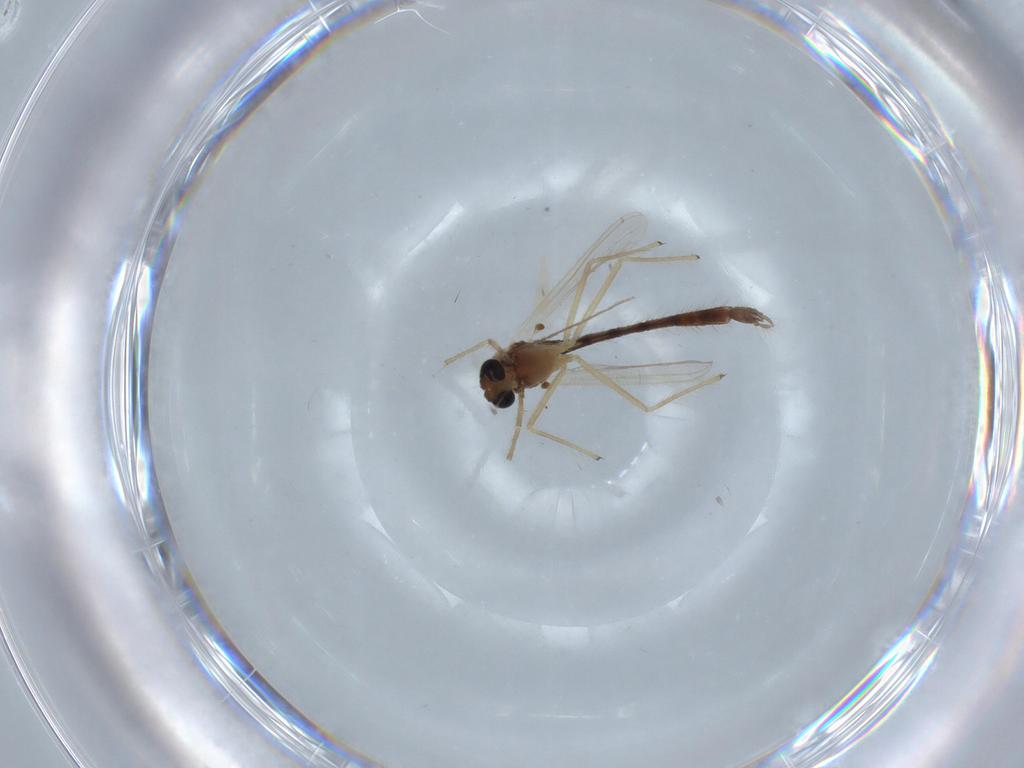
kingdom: Animalia
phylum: Arthropoda
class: Insecta
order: Diptera
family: Chironomidae
